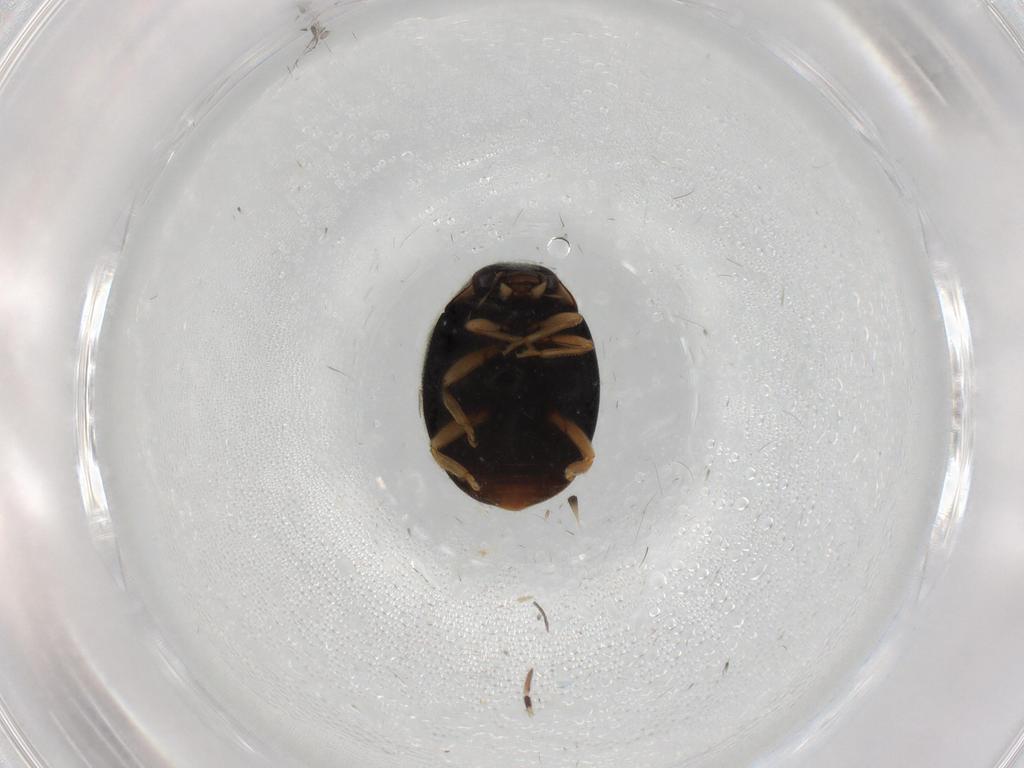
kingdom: Animalia
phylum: Arthropoda
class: Insecta
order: Coleoptera
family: Coccinellidae
